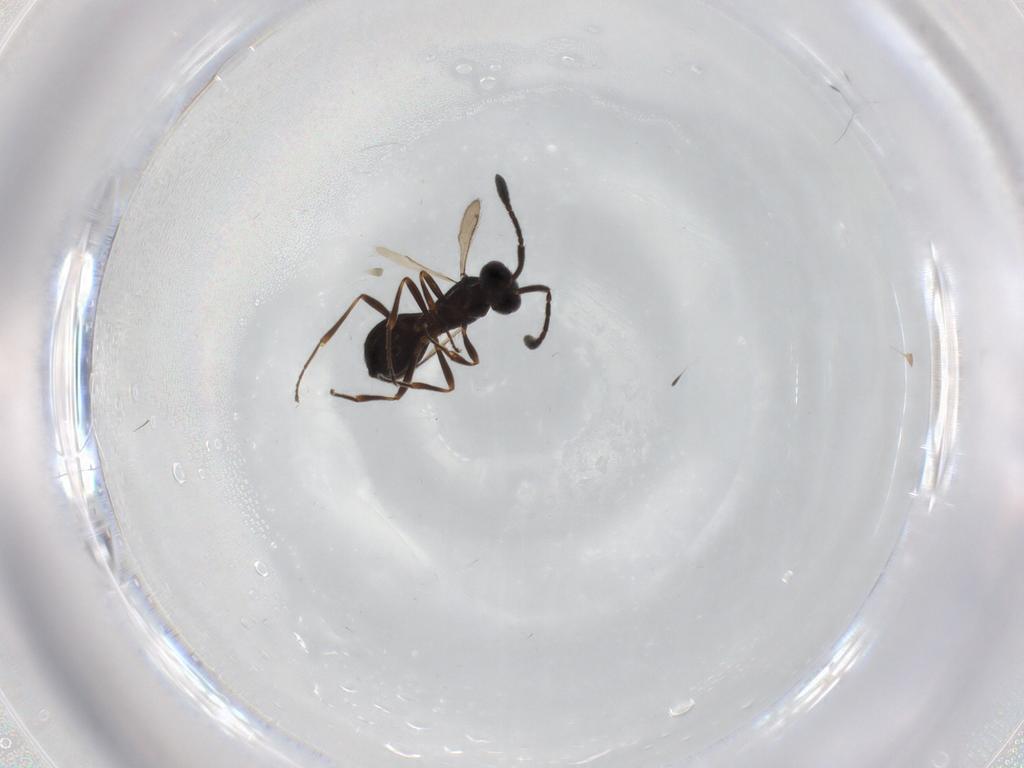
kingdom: Animalia
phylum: Arthropoda
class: Insecta
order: Hymenoptera
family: Scelionidae
